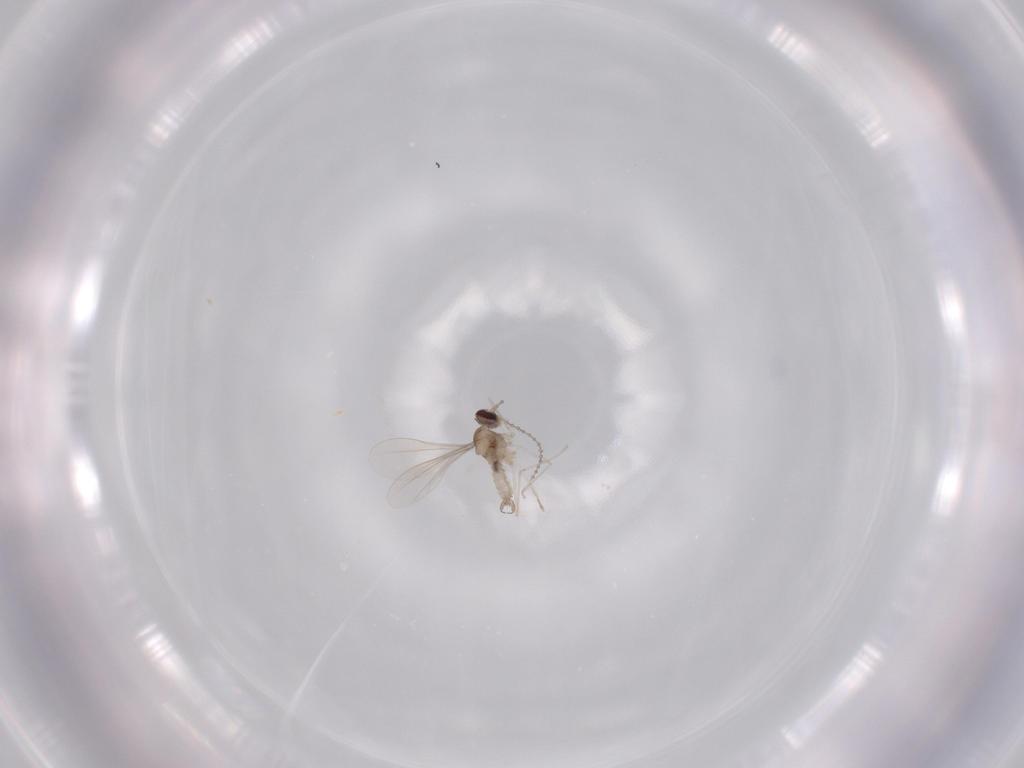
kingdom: Animalia
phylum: Arthropoda
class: Insecta
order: Diptera
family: Cecidomyiidae
